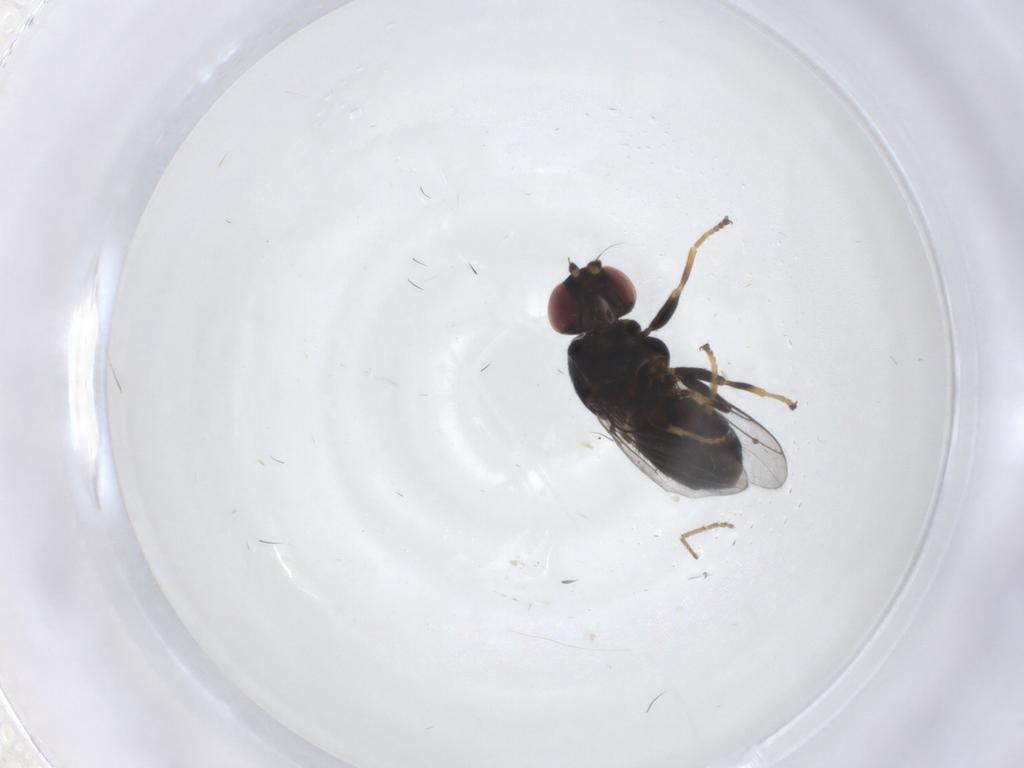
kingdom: Animalia
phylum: Arthropoda
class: Insecta
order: Diptera
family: Chloropidae
